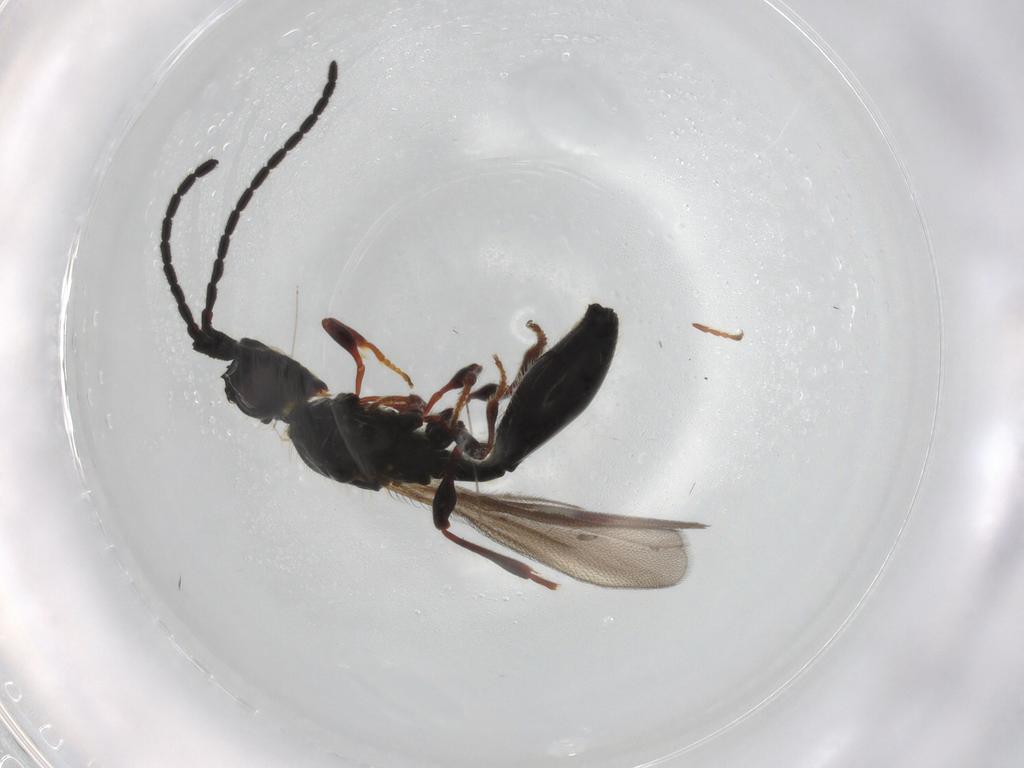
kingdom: Animalia
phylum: Arthropoda
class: Insecta
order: Hymenoptera
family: Diapriidae
